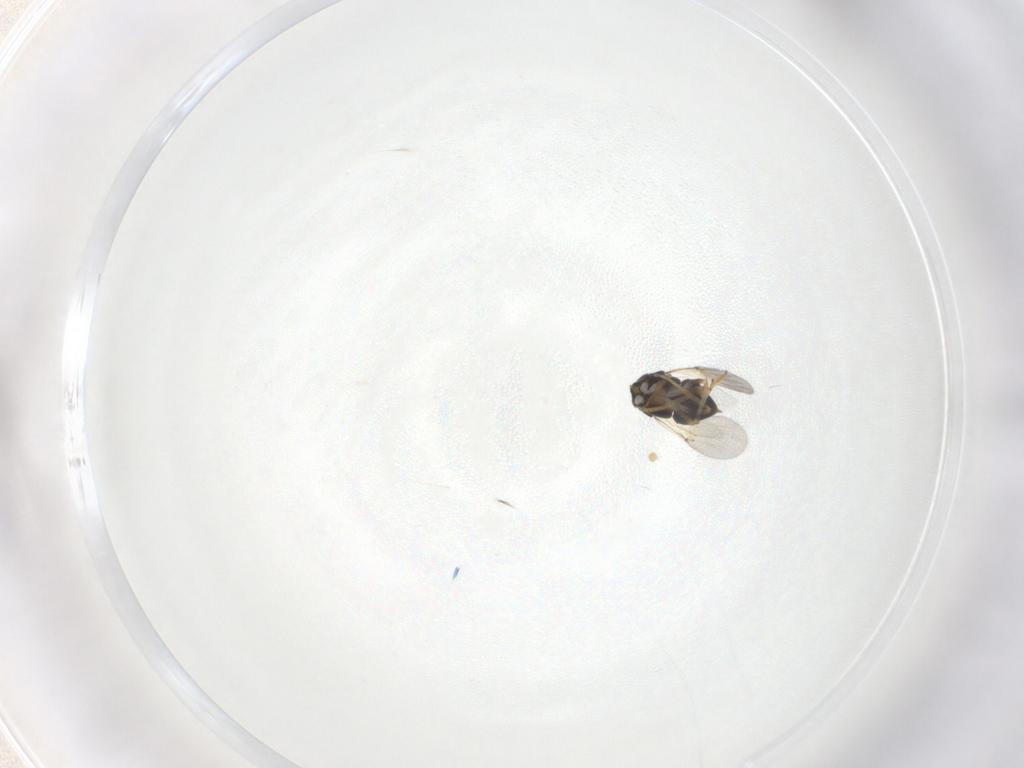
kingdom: Animalia
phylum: Arthropoda
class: Insecta
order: Hymenoptera
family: Encyrtidae
